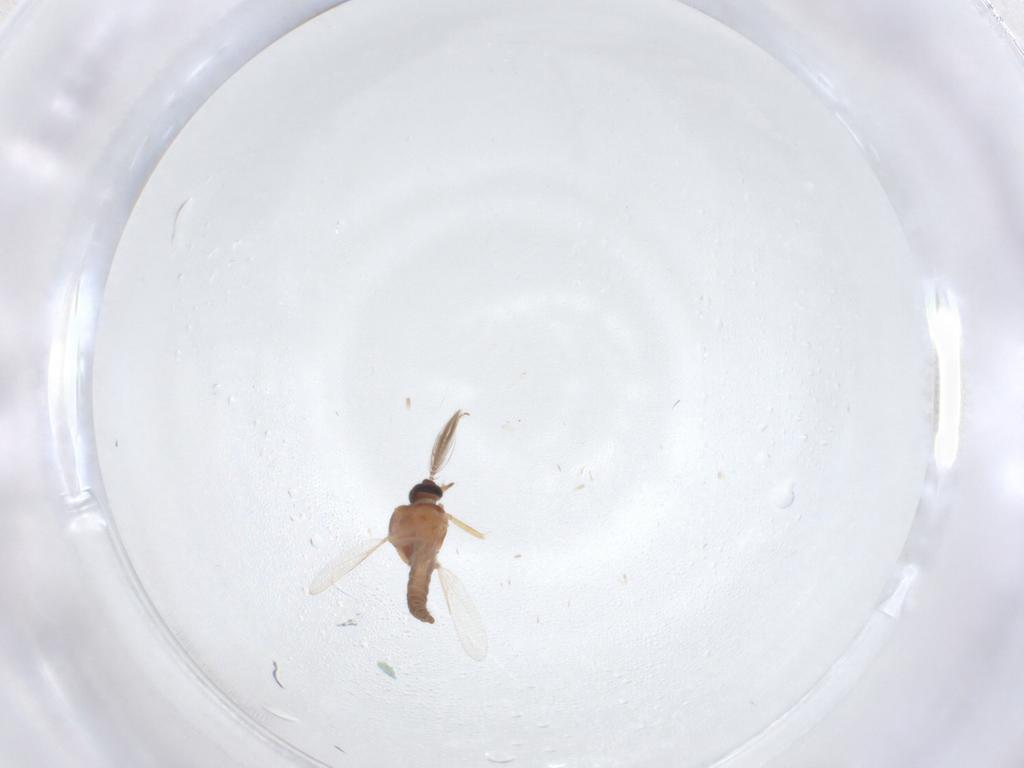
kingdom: Animalia
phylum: Arthropoda
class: Insecta
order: Diptera
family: Ceratopogonidae
